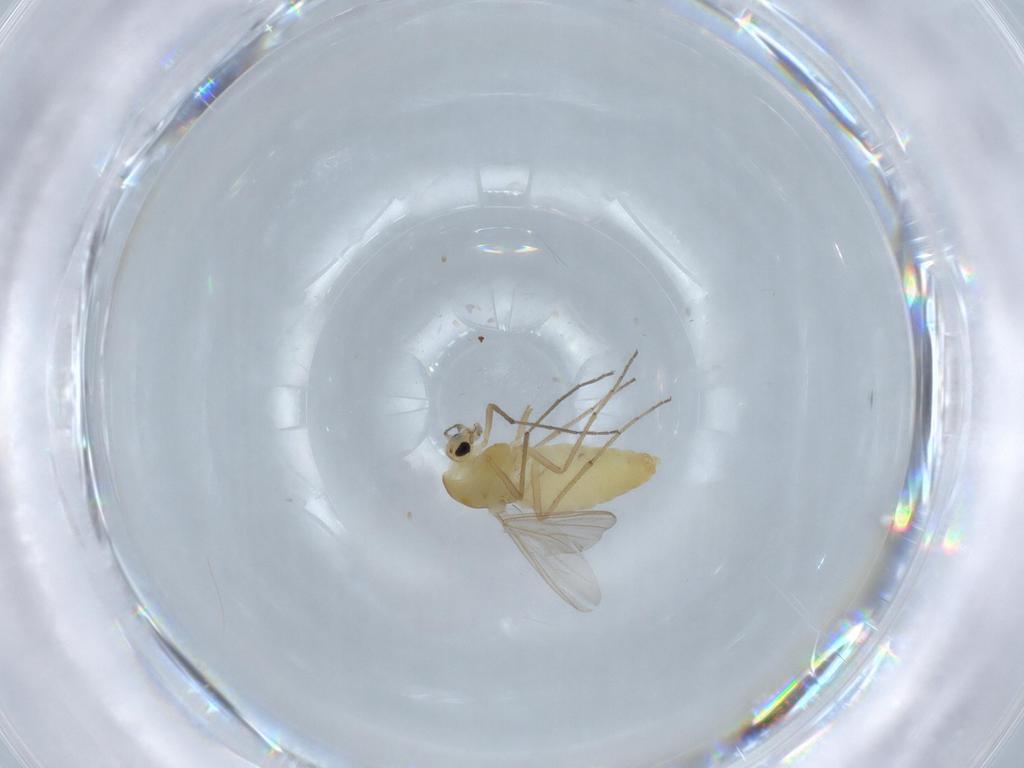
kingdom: Animalia
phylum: Arthropoda
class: Insecta
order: Diptera
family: Chironomidae
